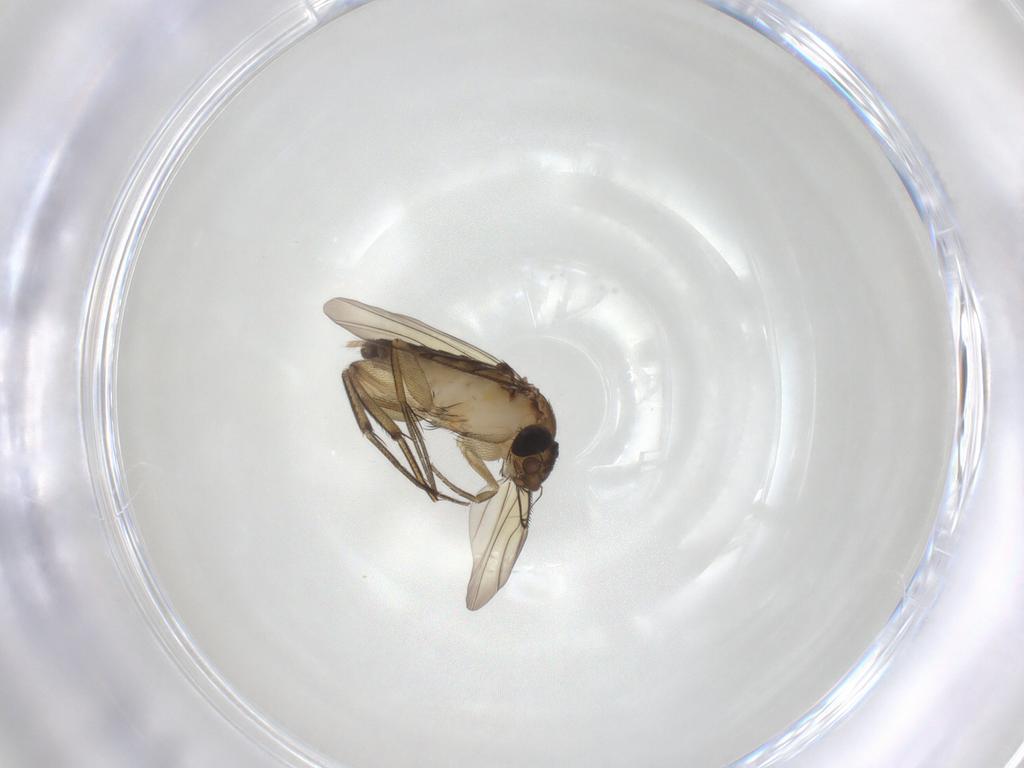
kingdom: Animalia
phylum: Arthropoda
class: Insecta
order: Diptera
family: Phoridae
